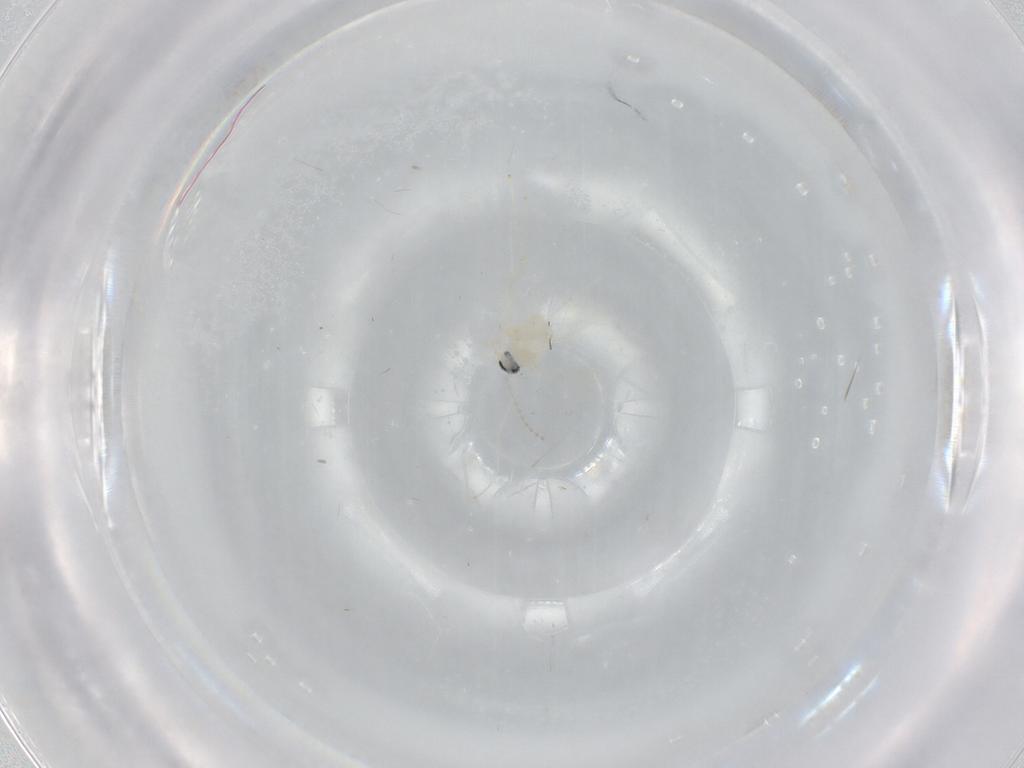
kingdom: Animalia
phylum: Arthropoda
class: Insecta
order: Diptera
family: Cecidomyiidae
